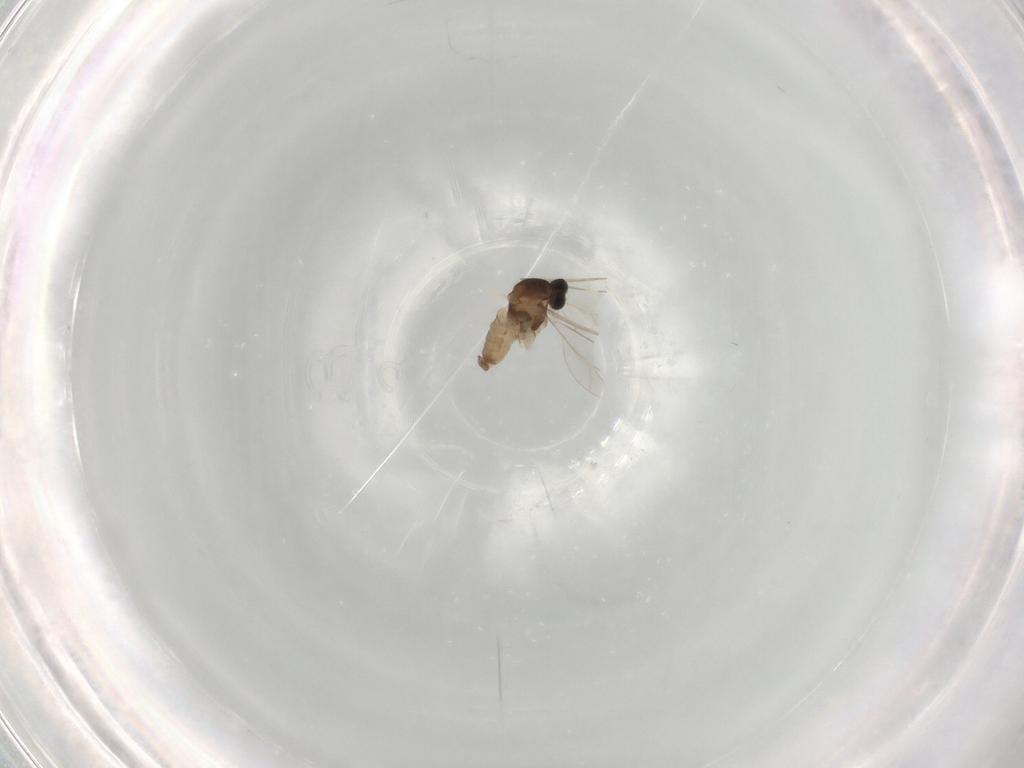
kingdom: Animalia
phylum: Arthropoda
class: Insecta
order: Diptera
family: Cecidomyiidae
